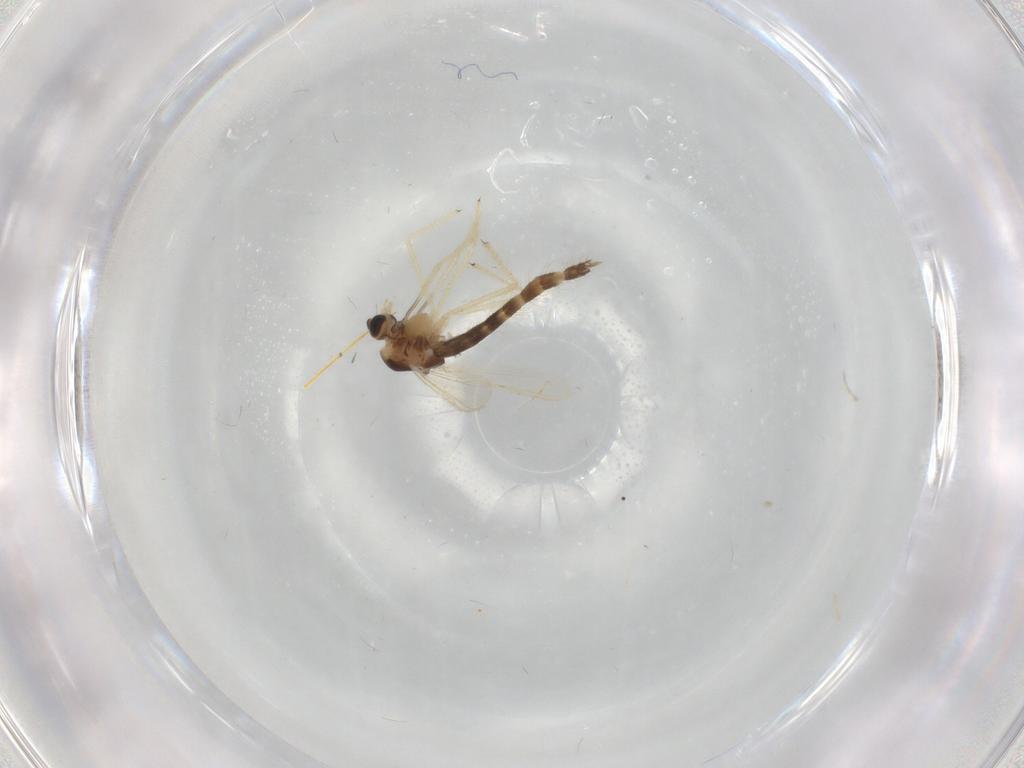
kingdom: Animalia
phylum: Arthropoda
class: Insecta
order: Diptera
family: Chironomidae
